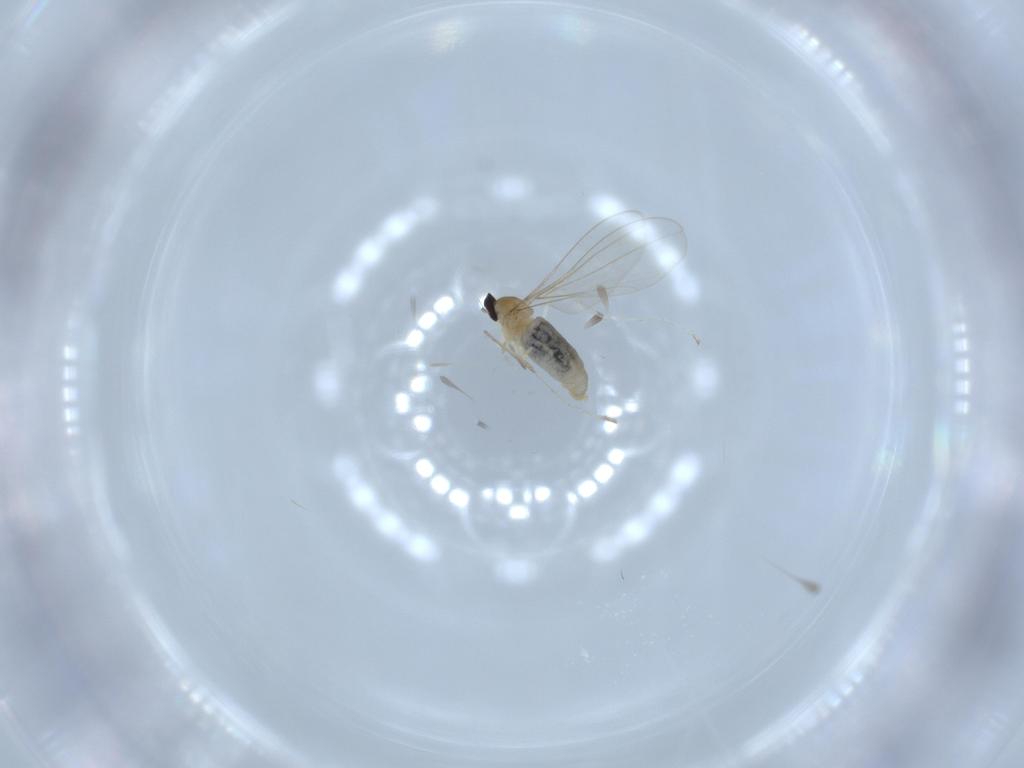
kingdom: Animalia
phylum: Arthropoda
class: Insecta
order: Diptera
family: Cecidomyiidae
